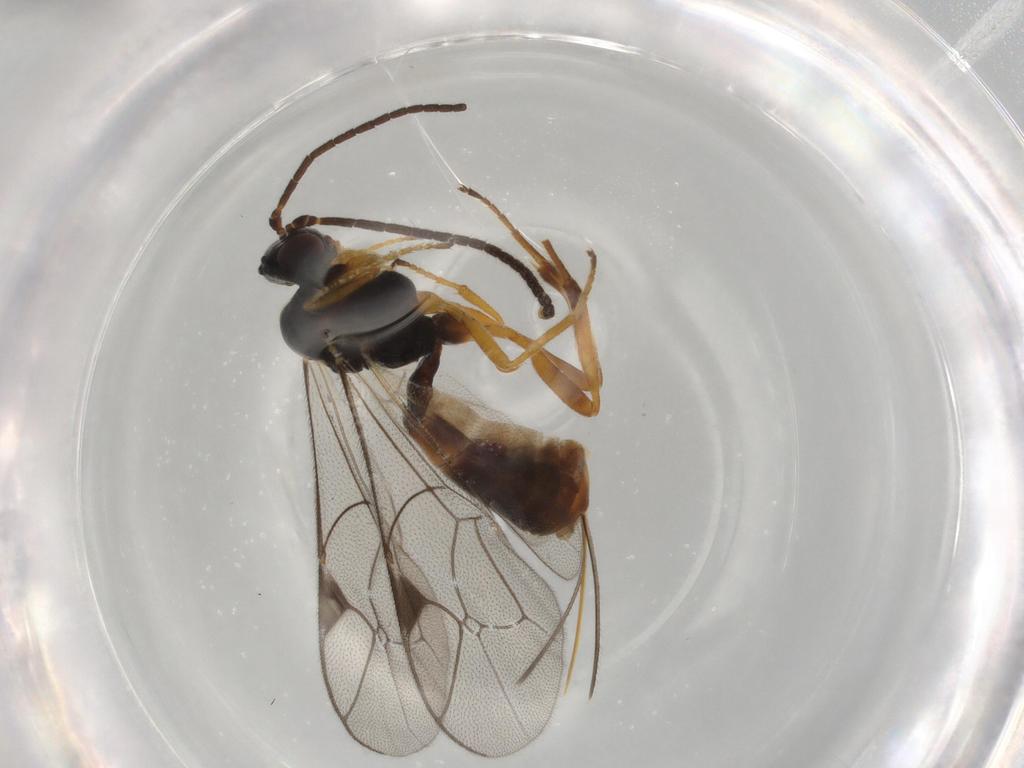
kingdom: Animalia
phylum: Arthropoda
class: Insecta
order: Hymenoptera
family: Ichneumonidae
